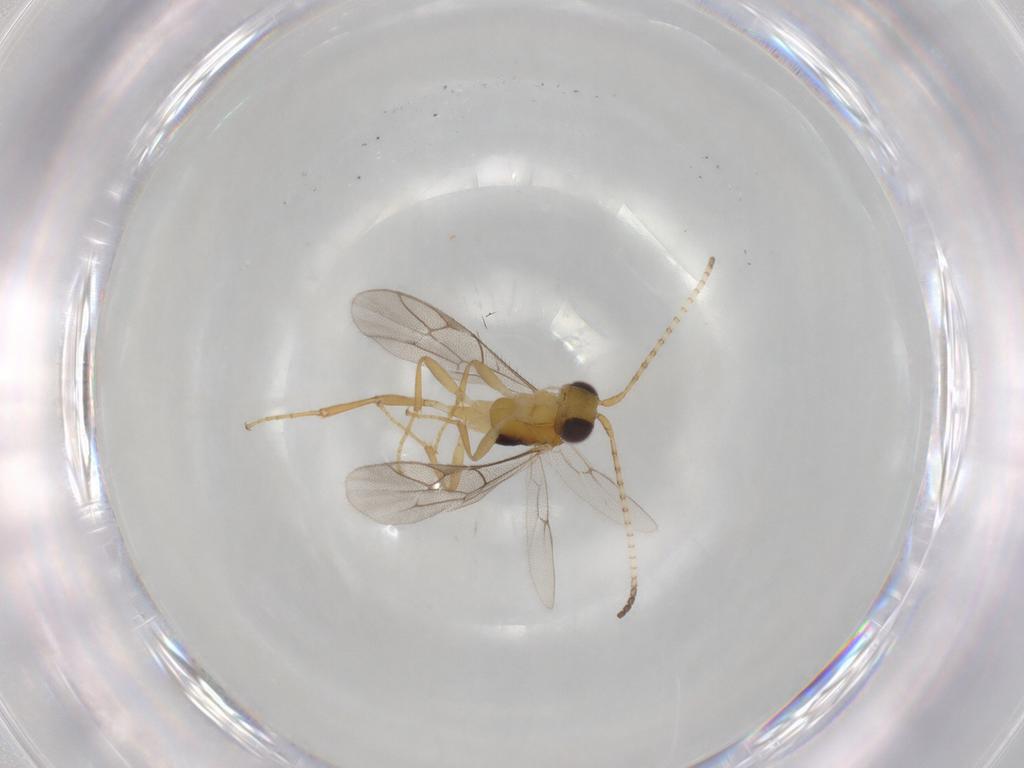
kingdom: Animalia
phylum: Arthropoda
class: Insecta
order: Hymenoptera
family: Ichneumonidae
